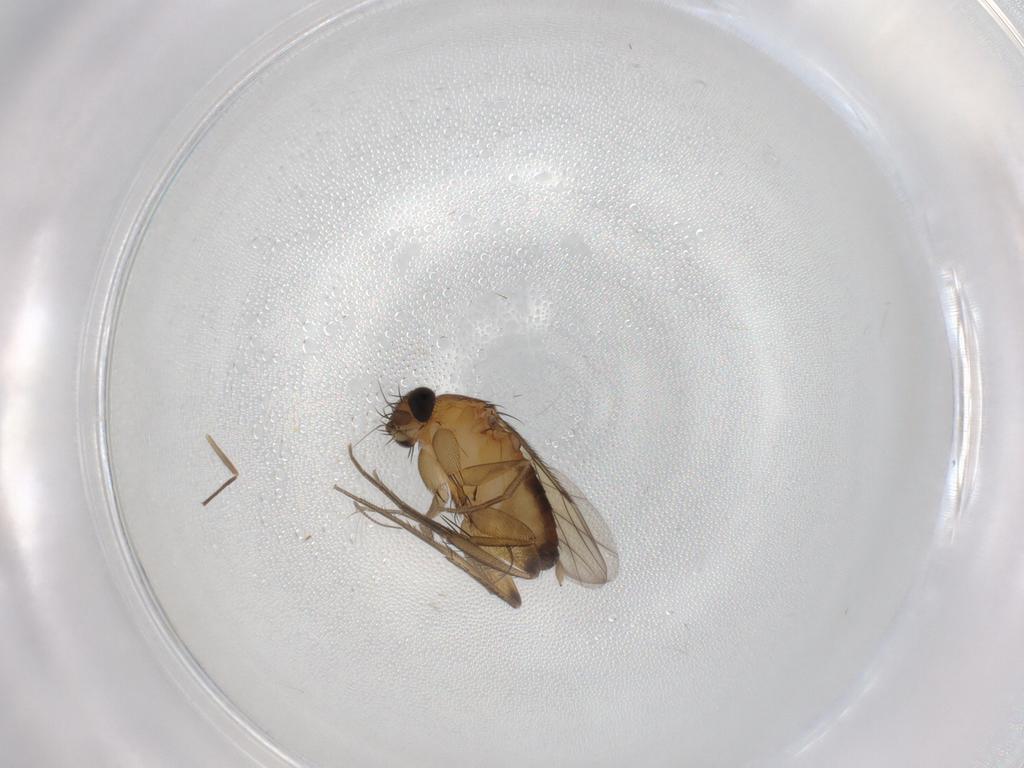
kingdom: Animalia
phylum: Arthropoda
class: Insecta
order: Diptera
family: Phoridae
